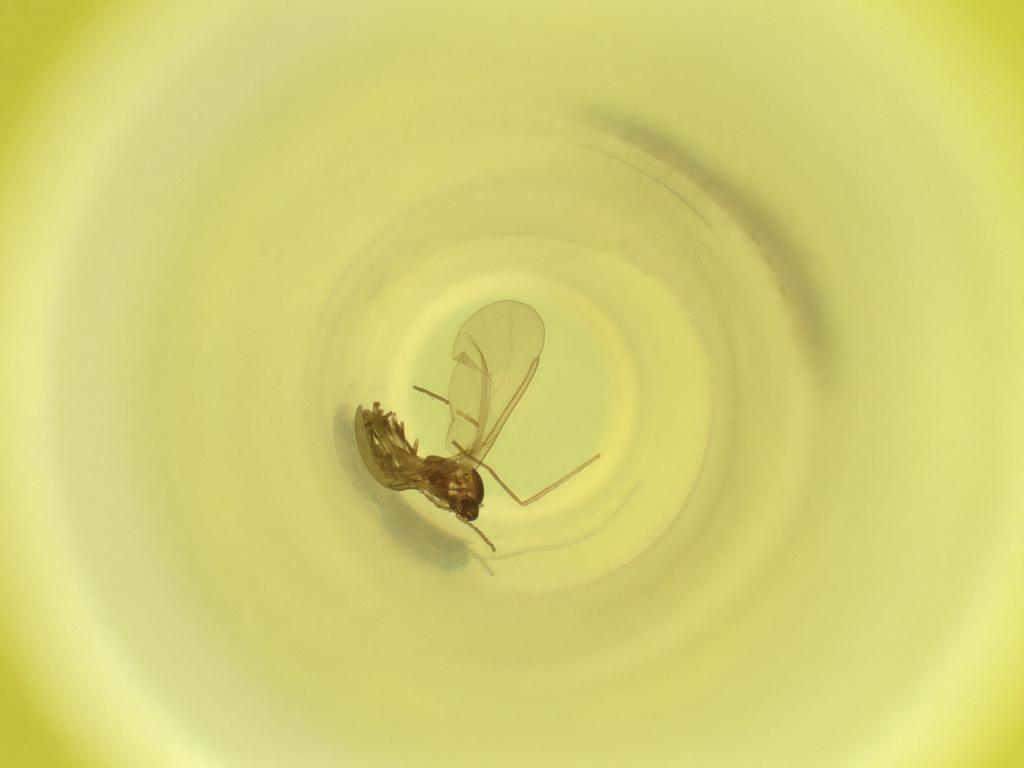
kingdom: Animalia
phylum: Arthropoda
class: Insecta
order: Diptera
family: Cecidomyiidae
